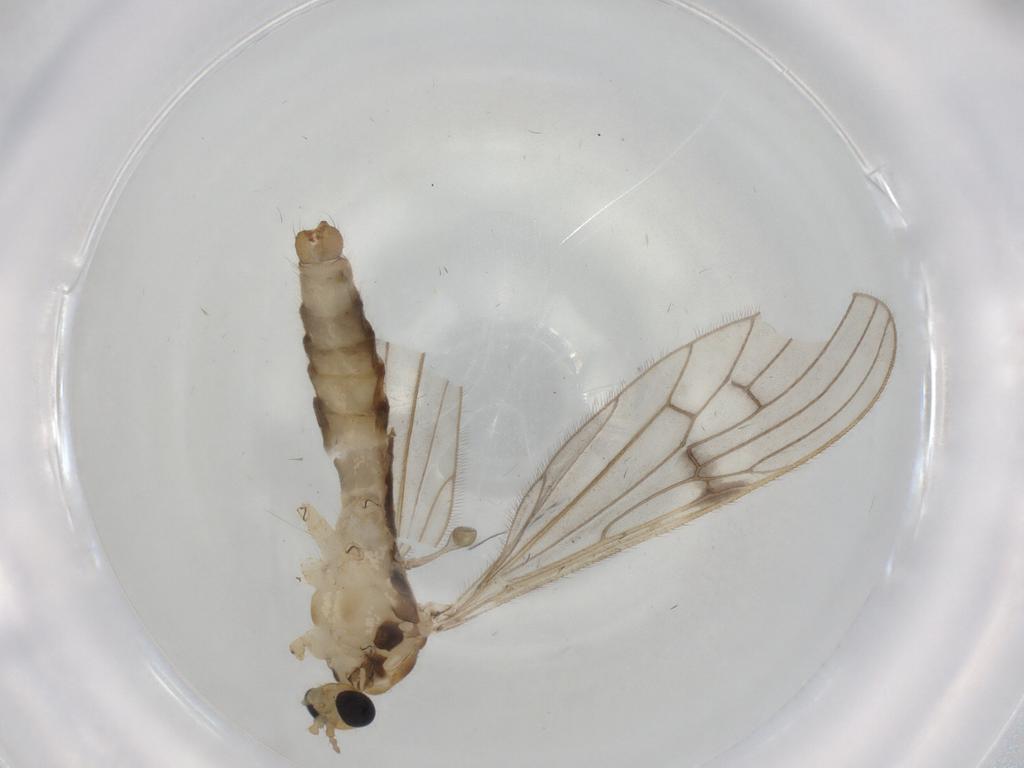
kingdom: Animalia
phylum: Arthropoda
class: Insecta
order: Diptera
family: Limoniidae
